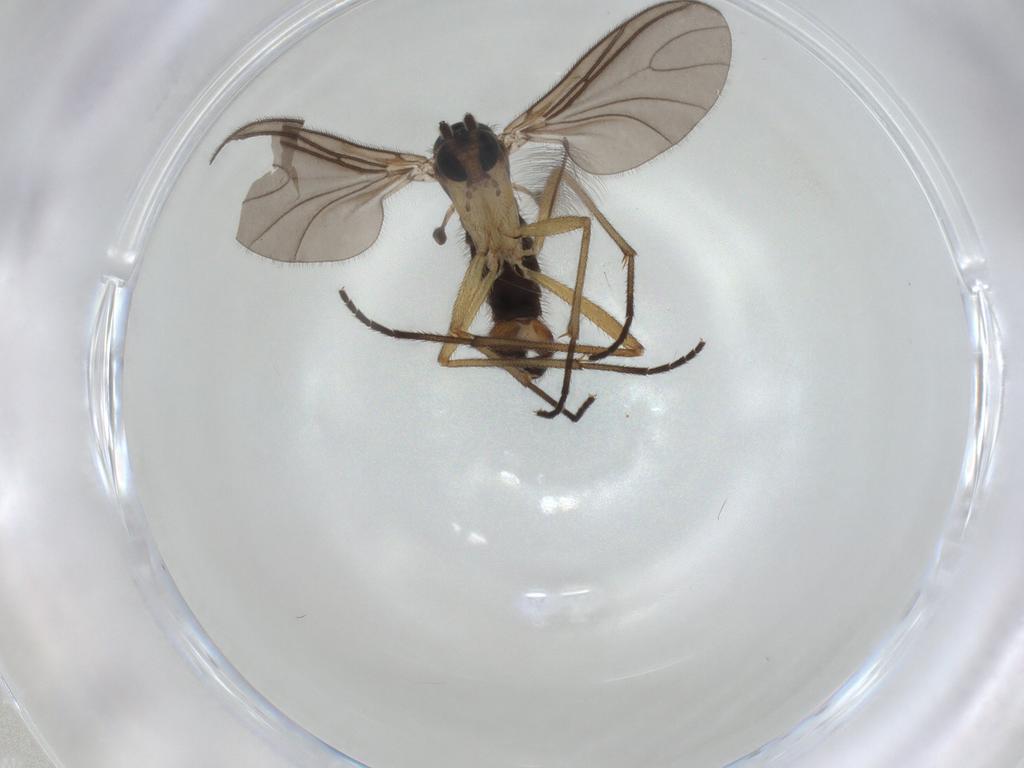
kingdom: Animalia
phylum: Arthropoda
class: Insecta
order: Diptera
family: Sciaridae
